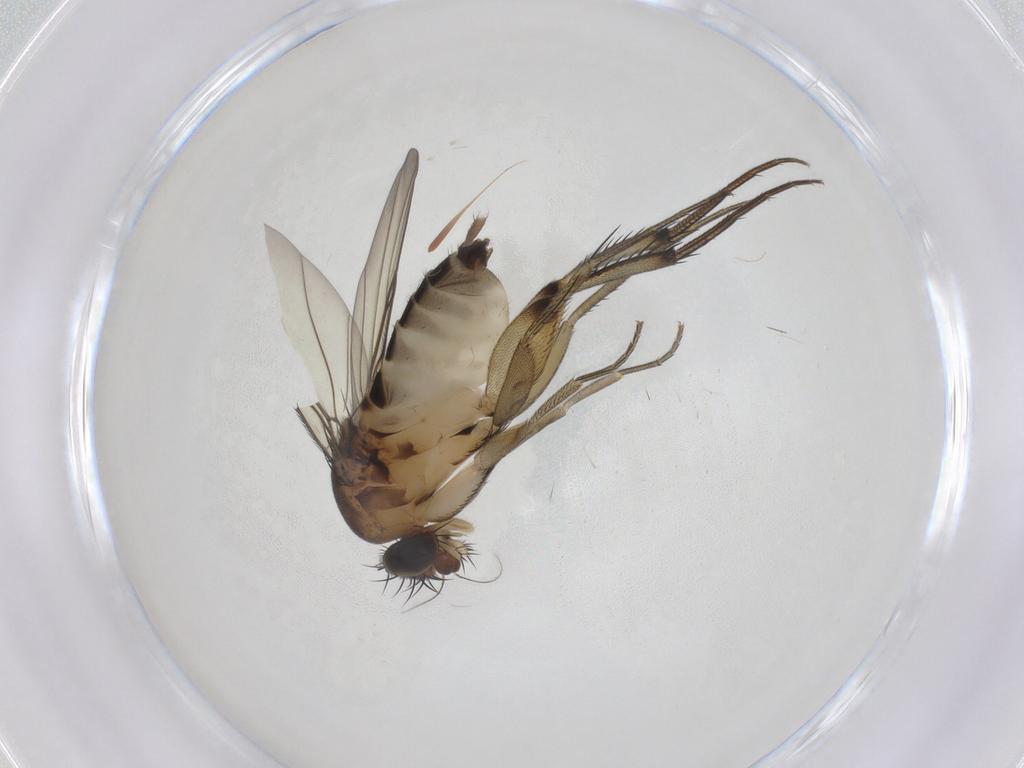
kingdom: Animalia
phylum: Arthropoda
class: Insecta
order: Diptera
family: Phoridae
